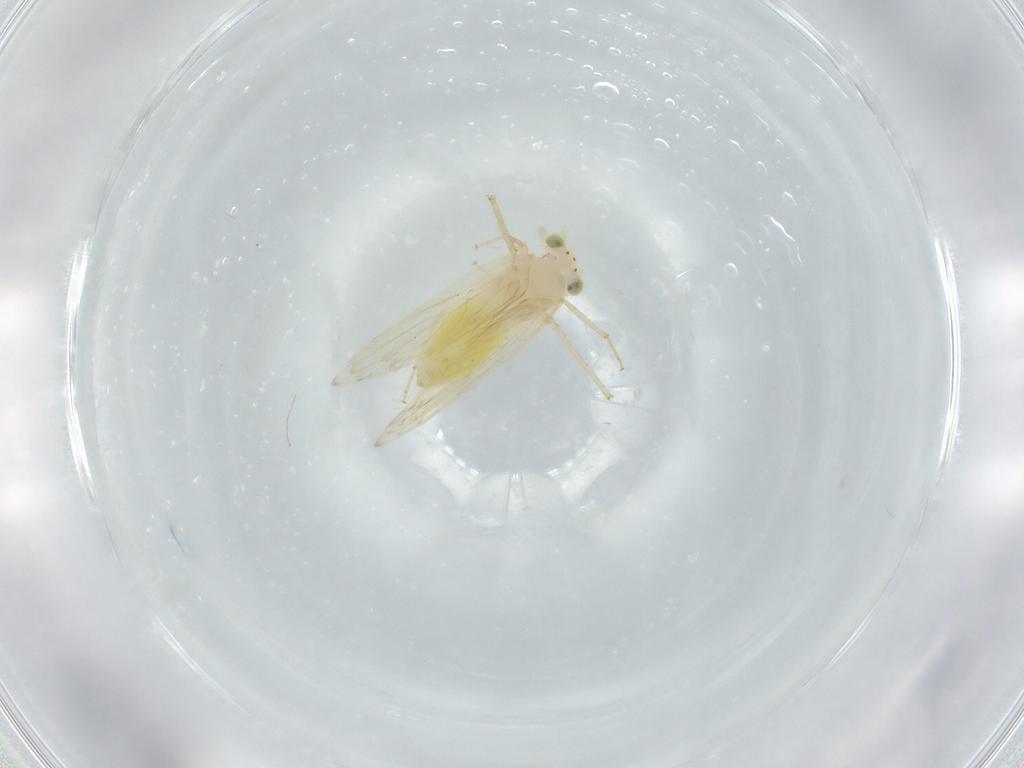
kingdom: Animalia
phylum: Arthropoda
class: Insecta
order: Psocodea
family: Lepidopsocidae
